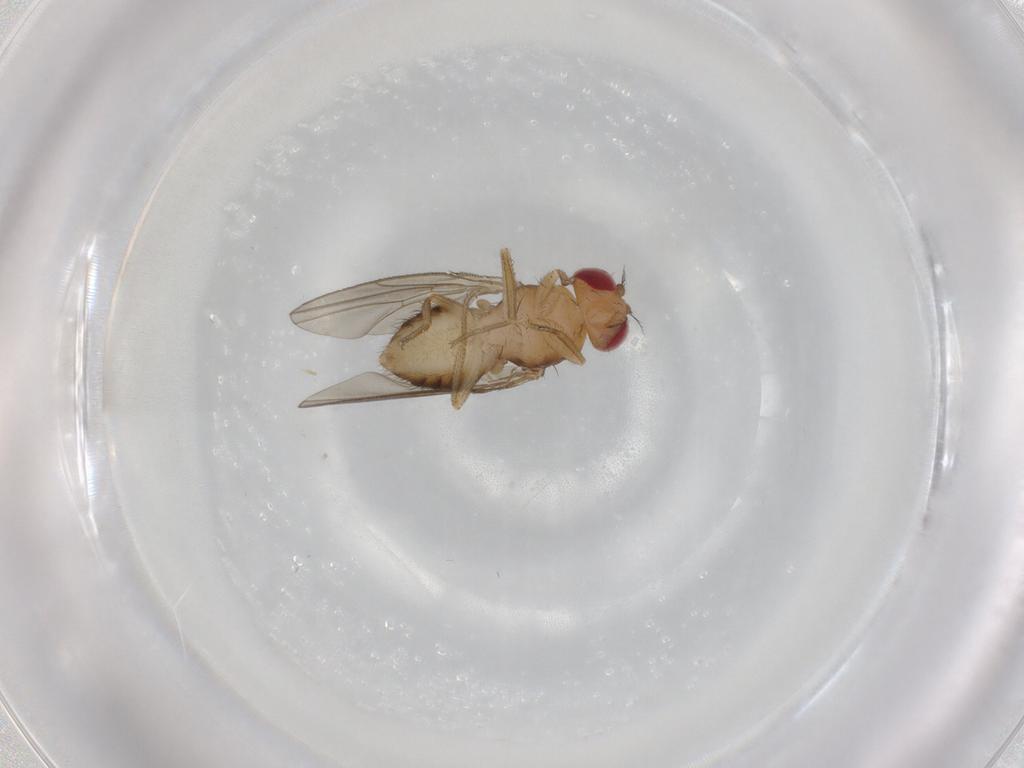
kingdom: Animalia
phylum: Arthropoda
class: Insecta
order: Diptera
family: Drosophilidae
